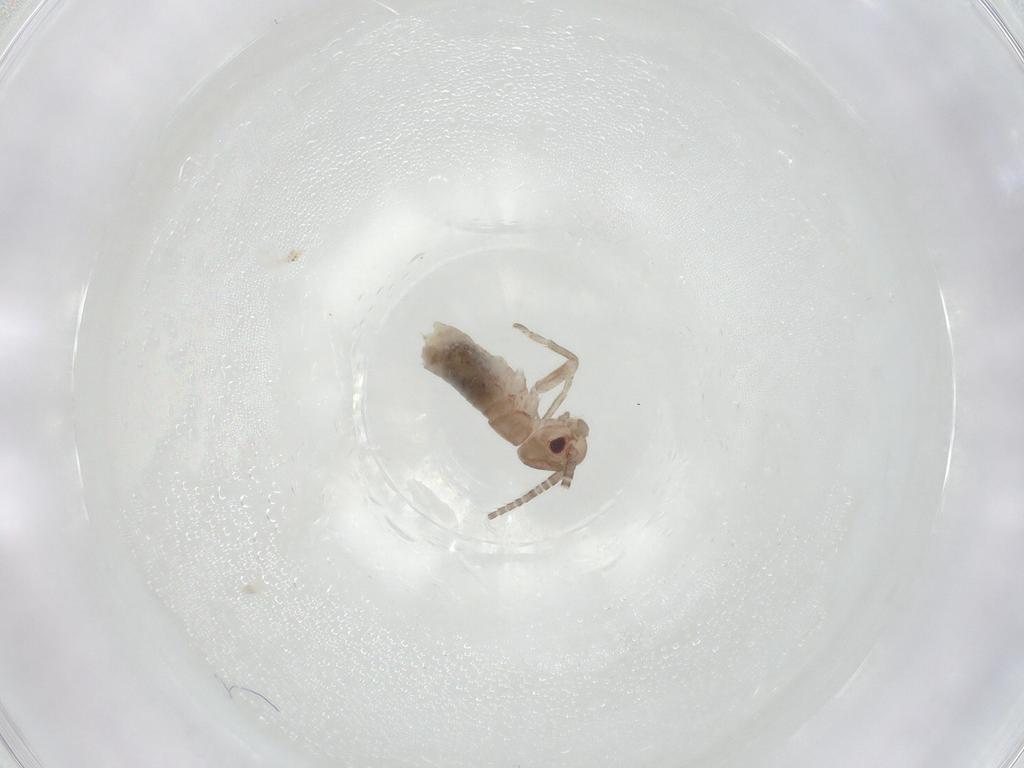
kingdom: Animalia
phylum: Arthropoda
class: Insecta
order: Orthoptera
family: Gryllidae
